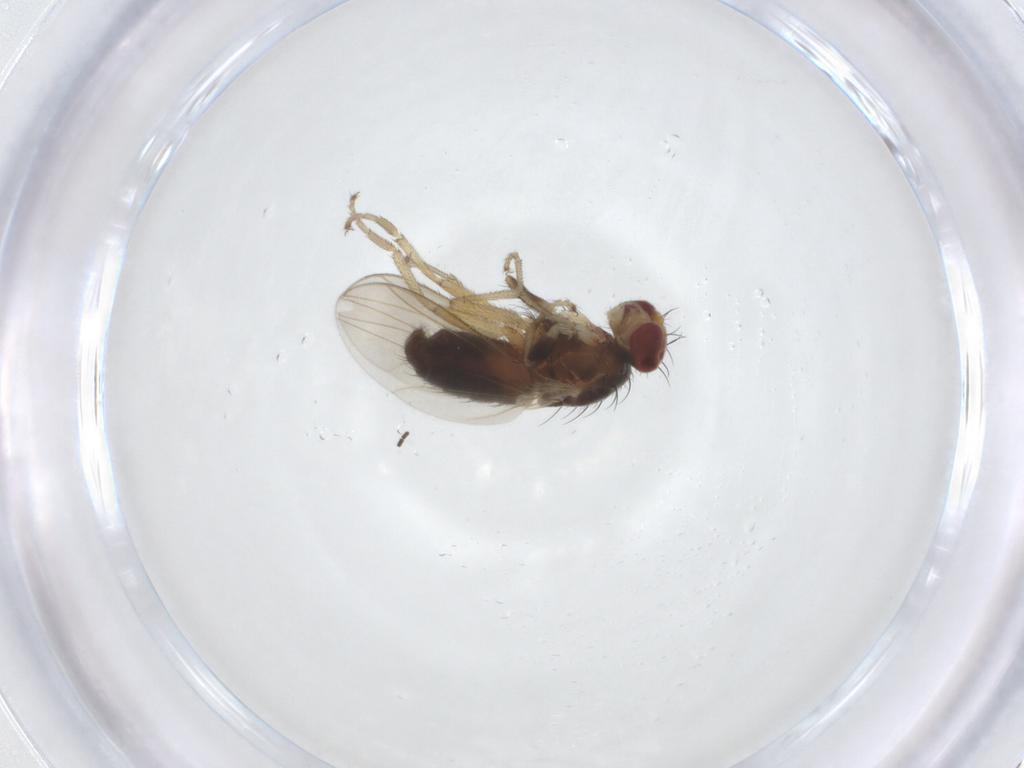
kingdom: Animalia
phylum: Arthropoda
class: Insecta
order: Diptera
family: Heleomyzidae
